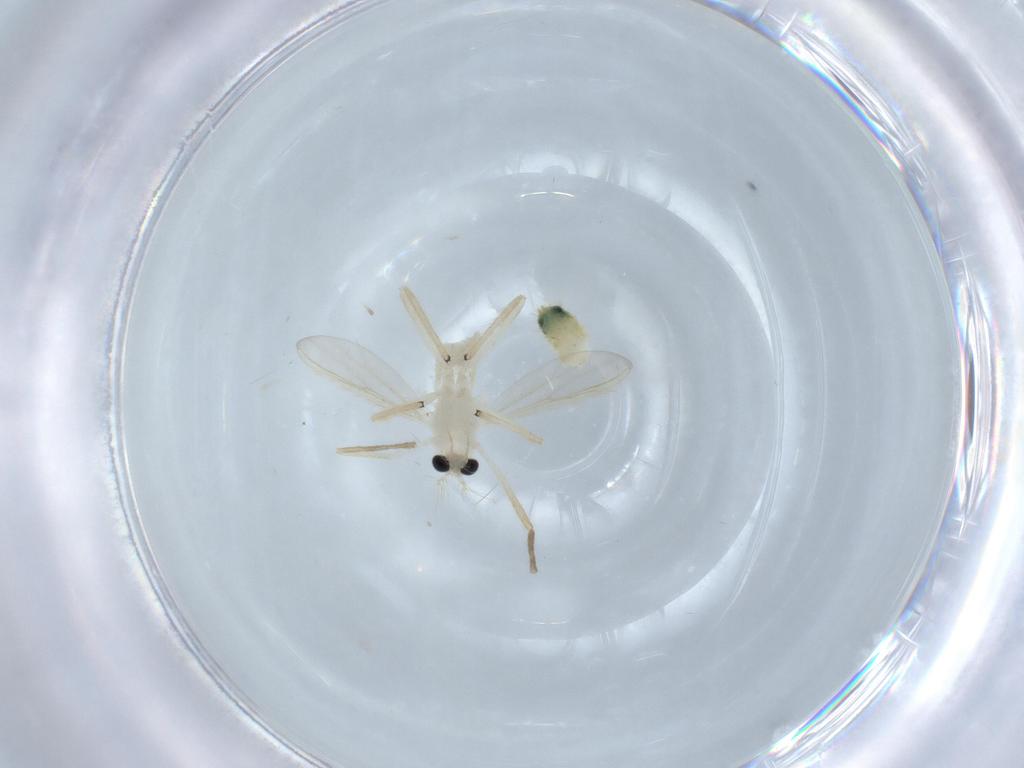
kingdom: Animalia
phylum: Arthropoda
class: Insecta
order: Diptera
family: Chironomidae
